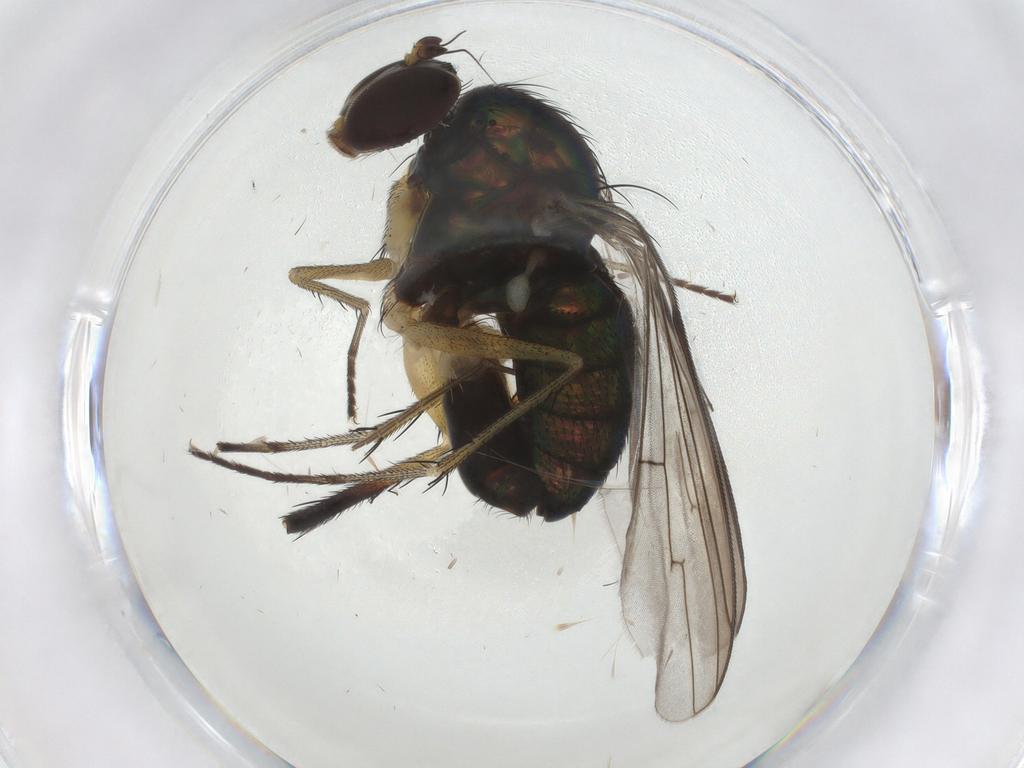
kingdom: Animalia
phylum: Arthropoda
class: Insecta
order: Diptera
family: Dolichopodidae
